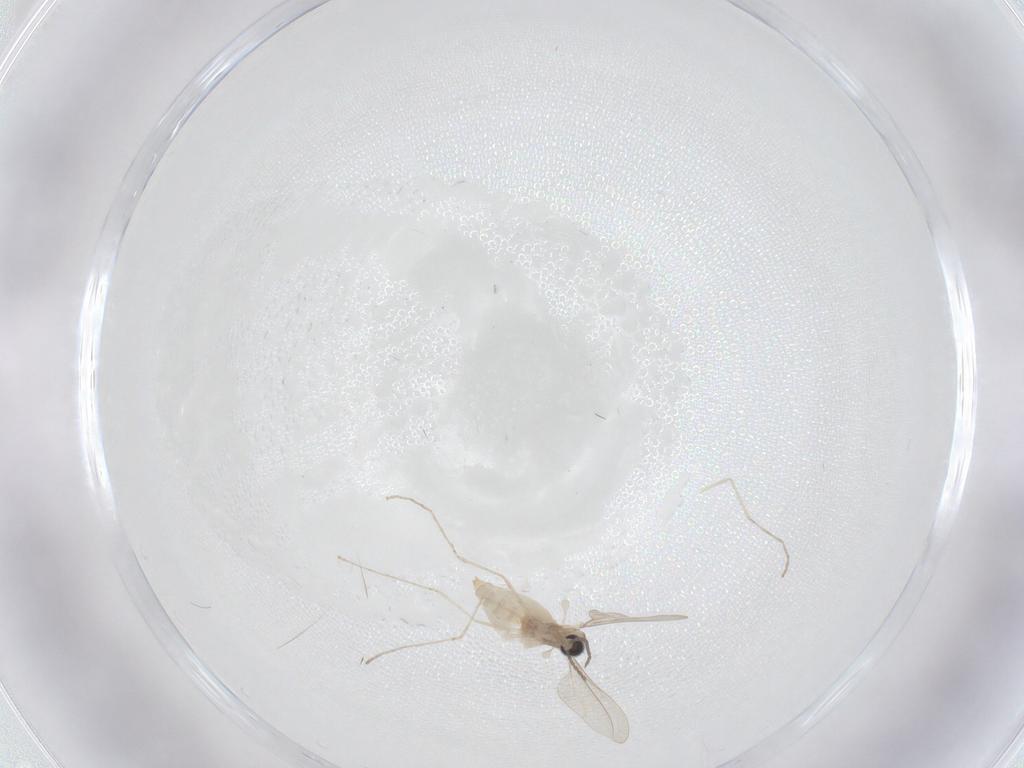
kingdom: Animalia
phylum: Arthropoda
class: Insecta
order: Diptera
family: Cecidomyiidae
